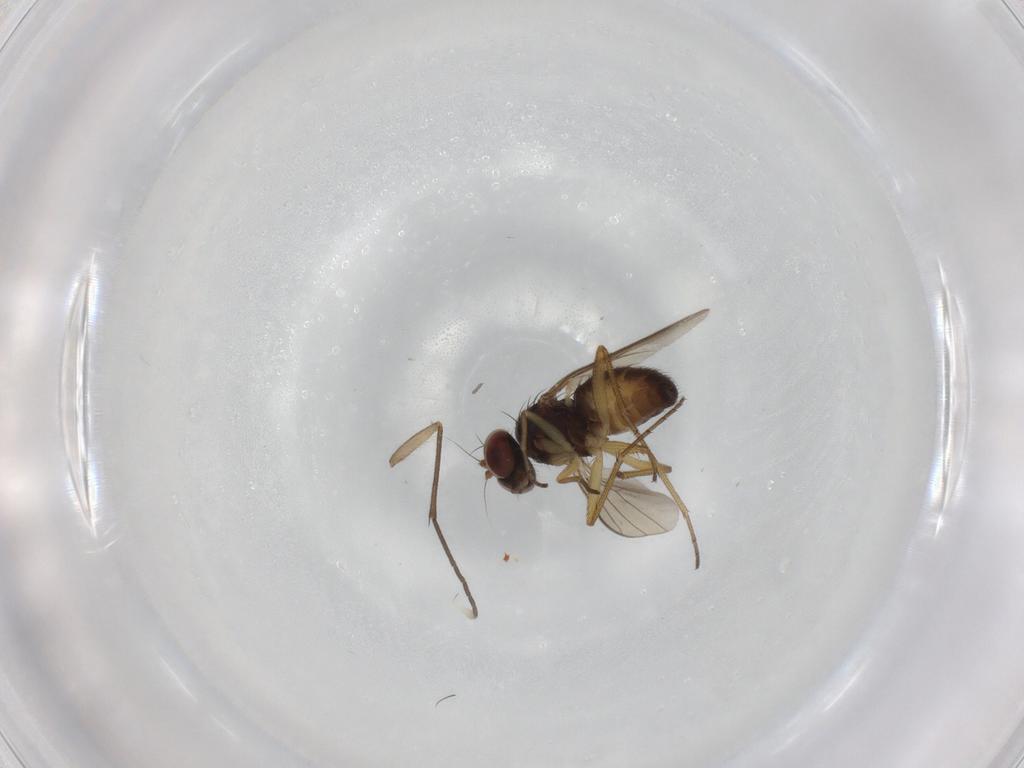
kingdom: Animalia
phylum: Arthropoda
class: Insecta
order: Diptera
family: Dolichopodidae
